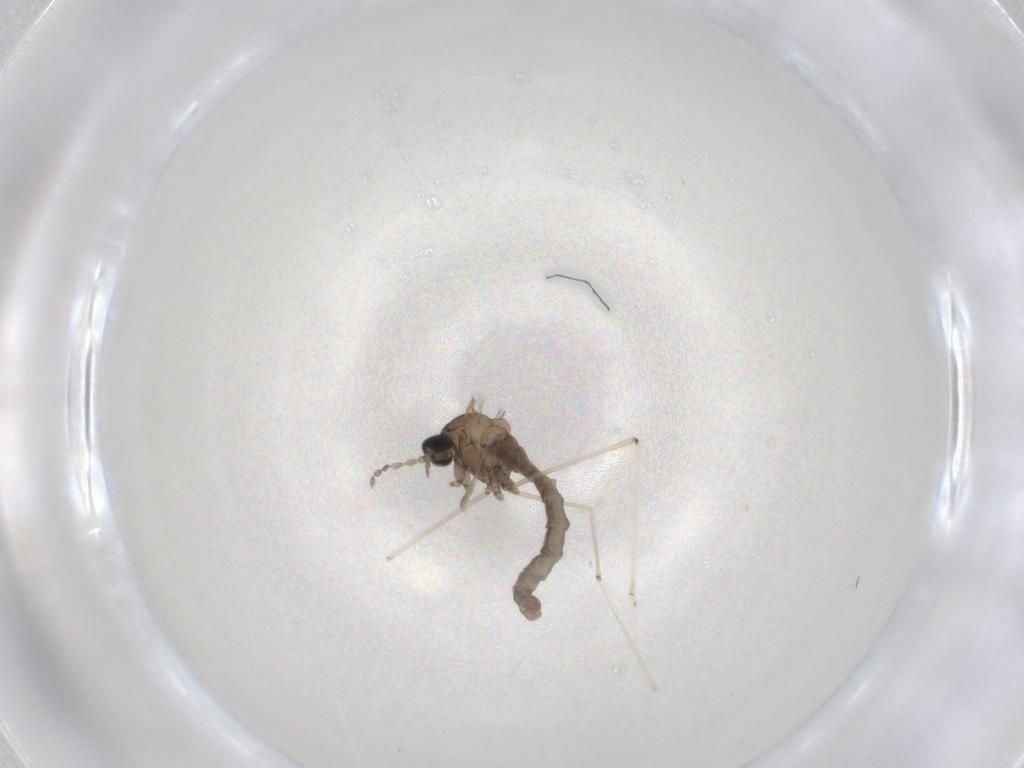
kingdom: Animalia
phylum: Arthropoda
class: Insecta
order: Diptera
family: Cecidomyiidae
